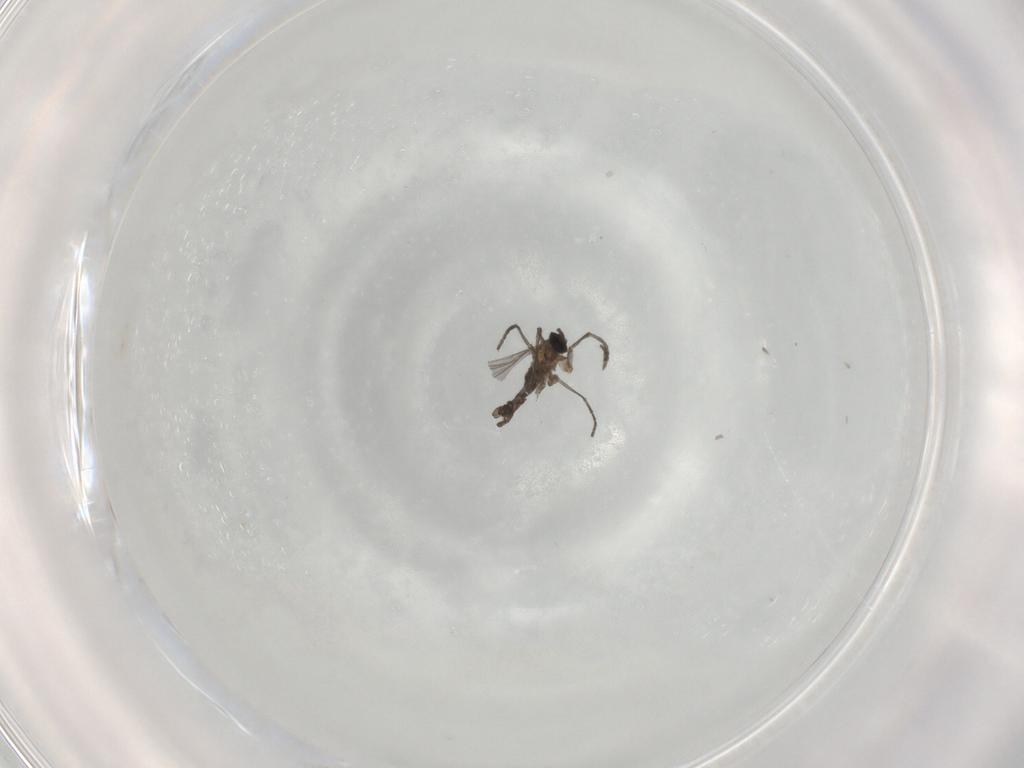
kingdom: Animalia
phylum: Arthropoda
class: Insecta
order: Diptera
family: Sciaridae
